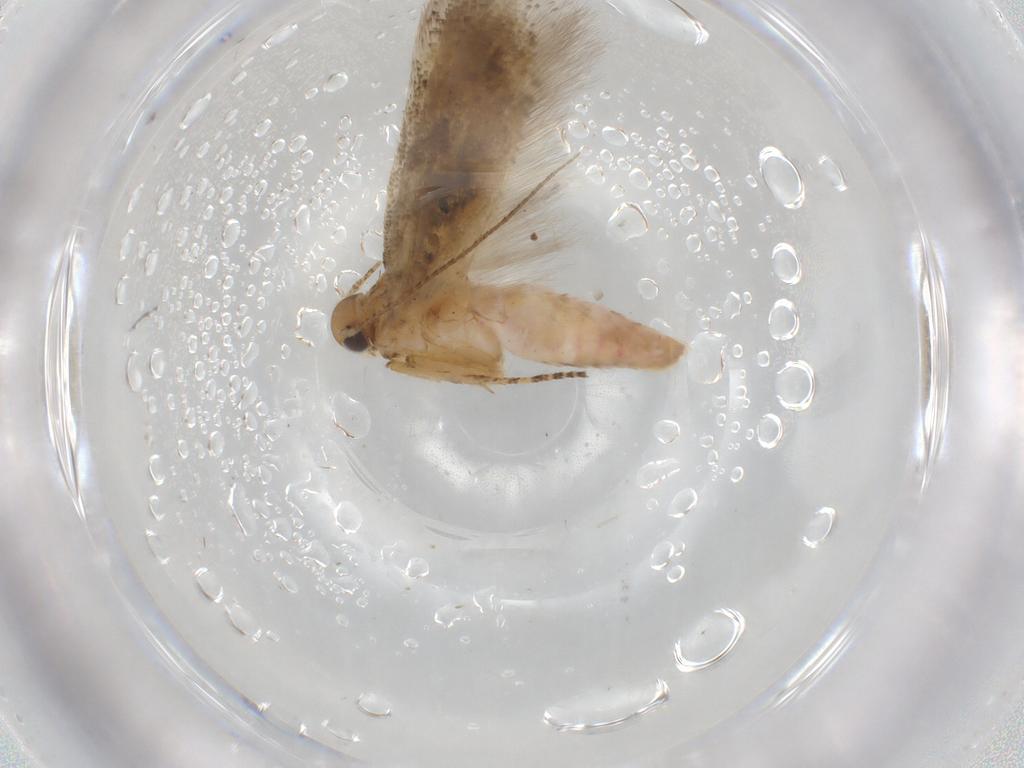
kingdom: Animalia
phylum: Arthropoda
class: Insecta
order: Lepidoptera
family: Gelechiidae
